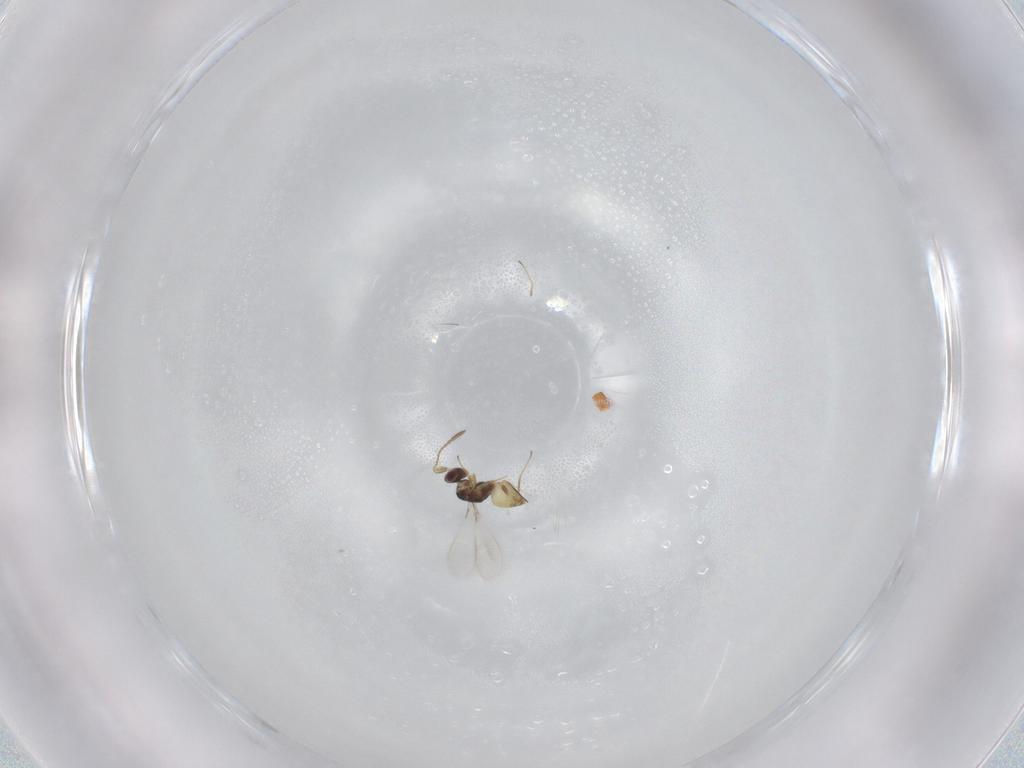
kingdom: Animalia
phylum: Arthropoda
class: Insecta
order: Hymenoptera
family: Mymaridae
